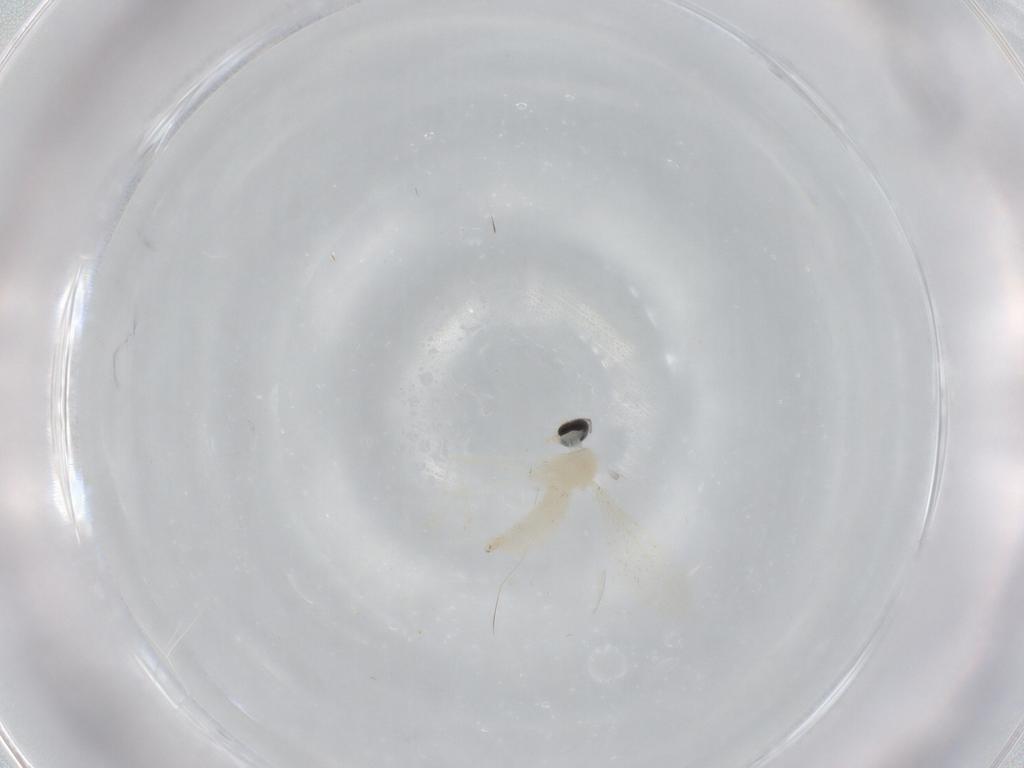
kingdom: Animalia
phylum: Arthropoda
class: Insecta
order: Diptera
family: Cecidomyiidae
